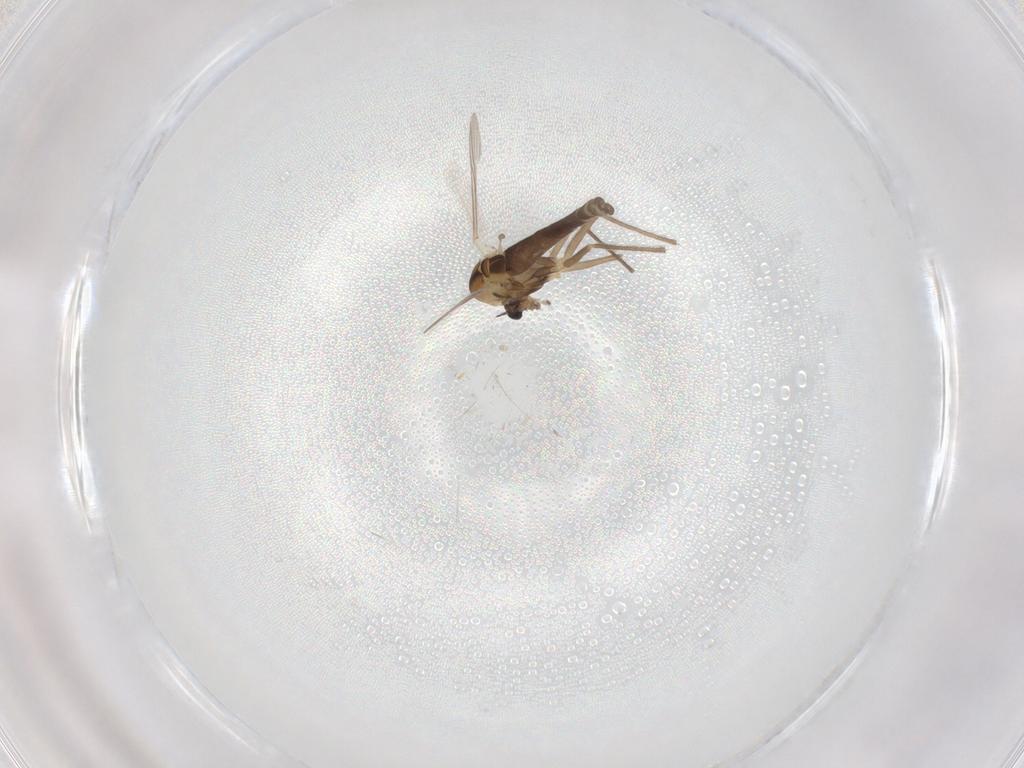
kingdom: Animalia
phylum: Arthropoda
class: Insecta
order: Diptera
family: Chironomidae
